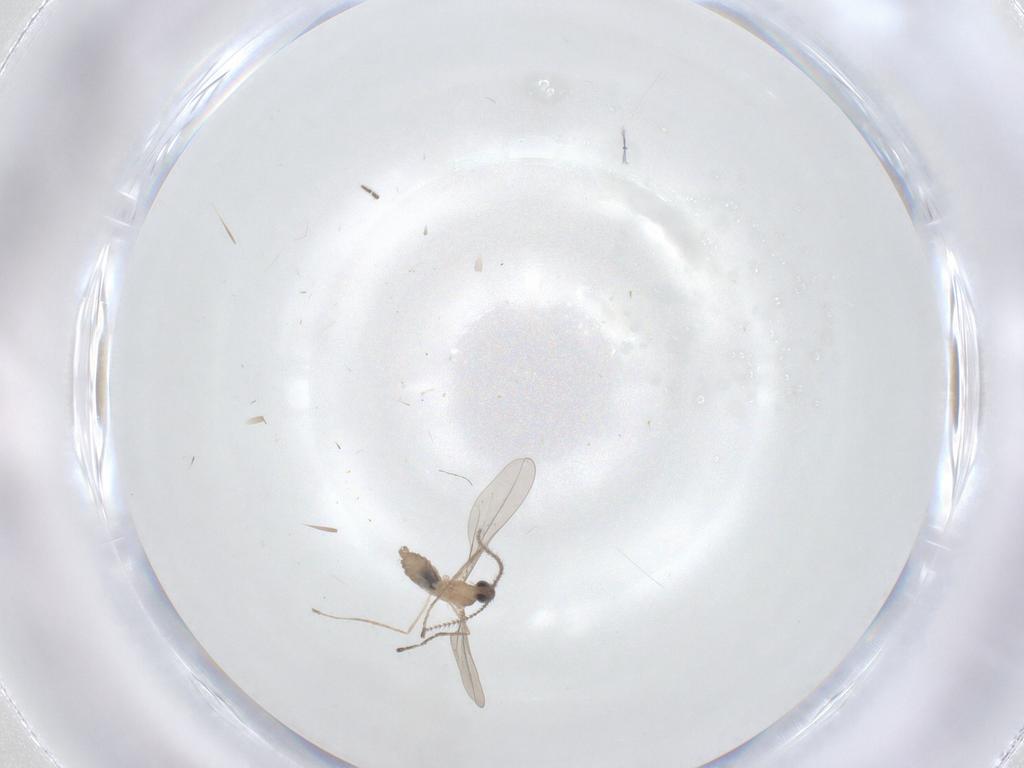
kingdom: Animalia
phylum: Arthropoda
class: Insecta
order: Diptera
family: Cecidomyiidae
